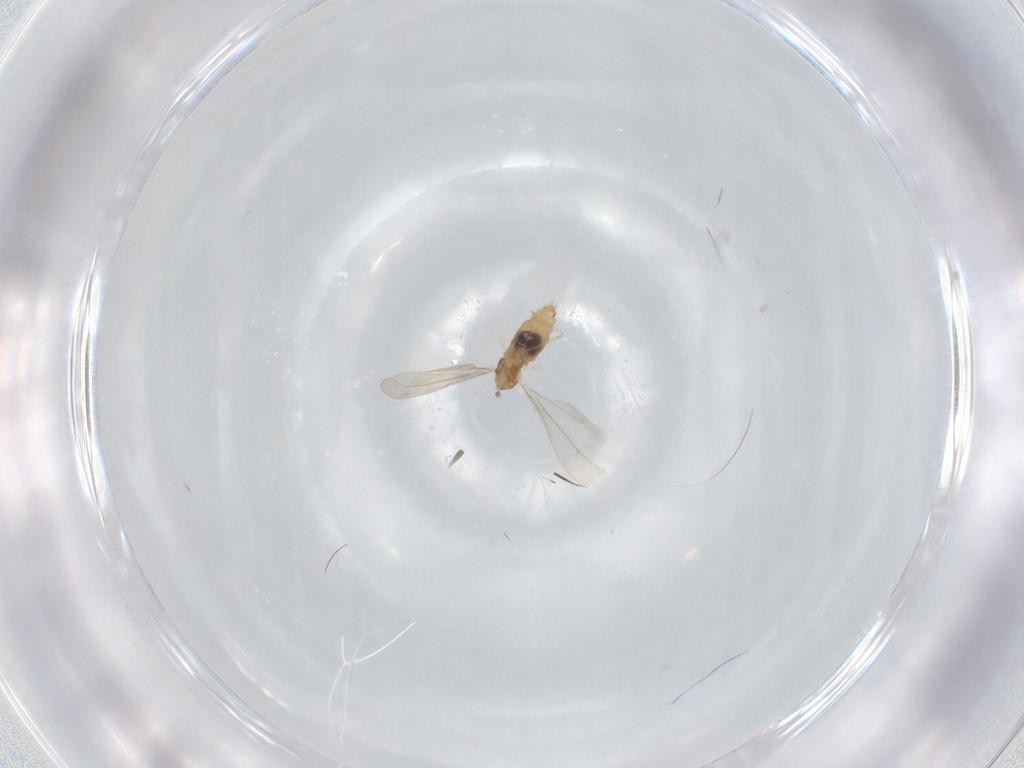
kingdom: Animalia
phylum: Arthropoda
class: Insecta
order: Diptera
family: Cecidomyiidae
